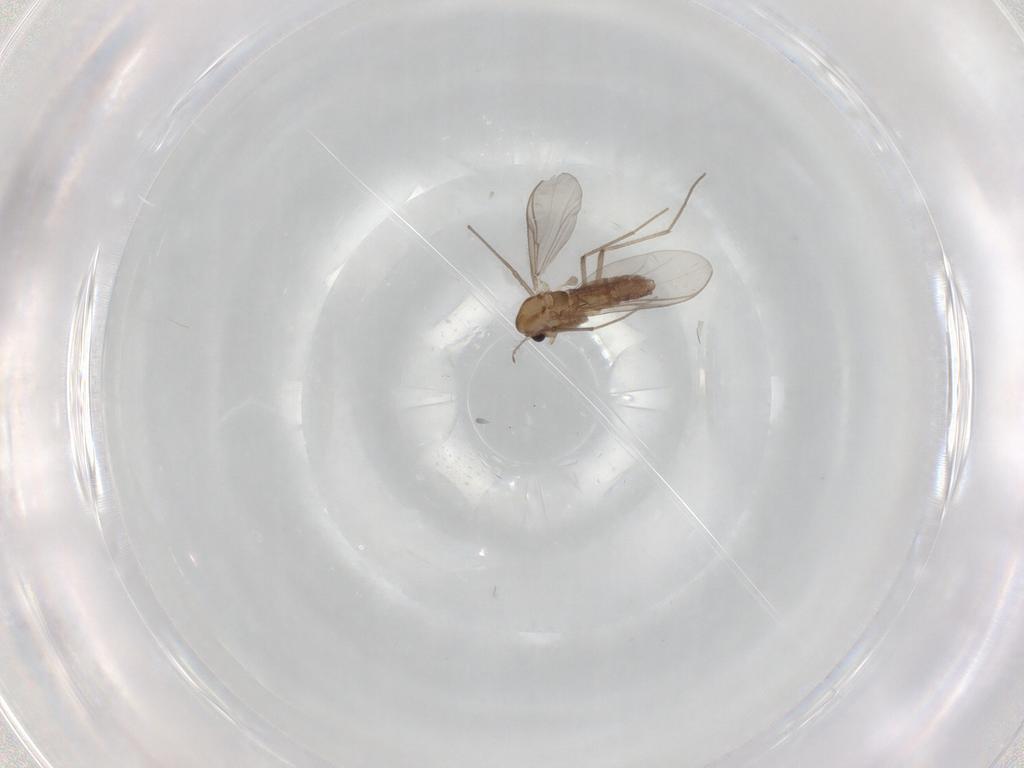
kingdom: Animalia
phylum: Arthropoda
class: Insecta
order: Diptera
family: Sciaridae
